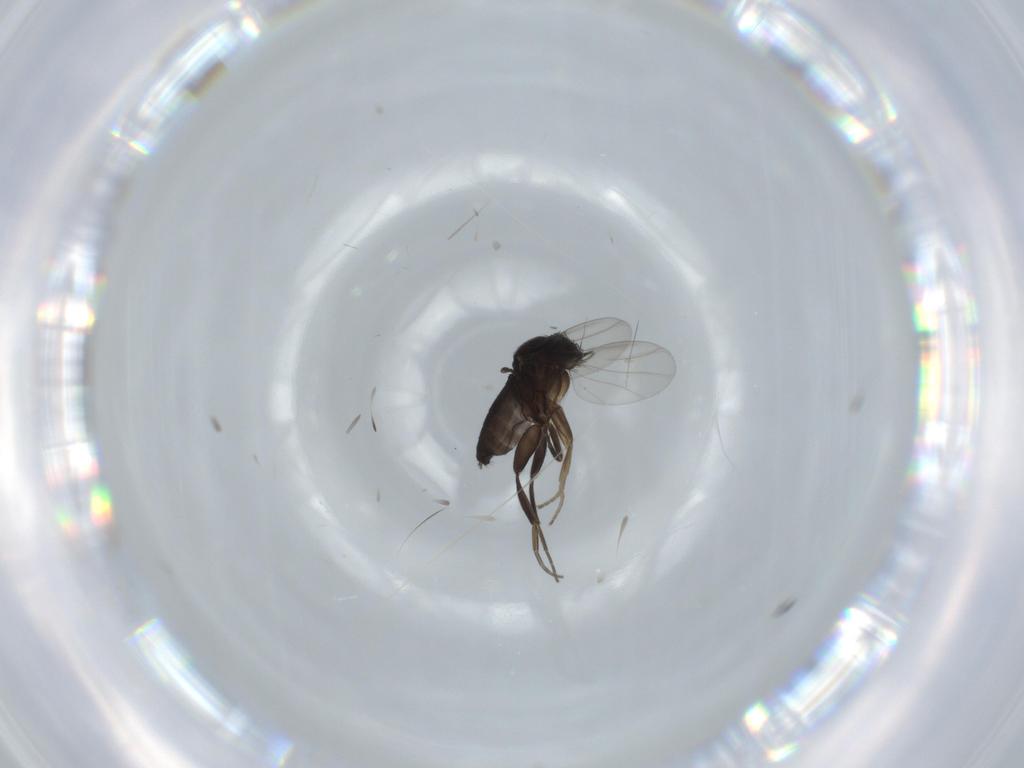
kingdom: Animalia
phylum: Arthropoda
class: Insecta
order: Diptera
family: Phoridae
